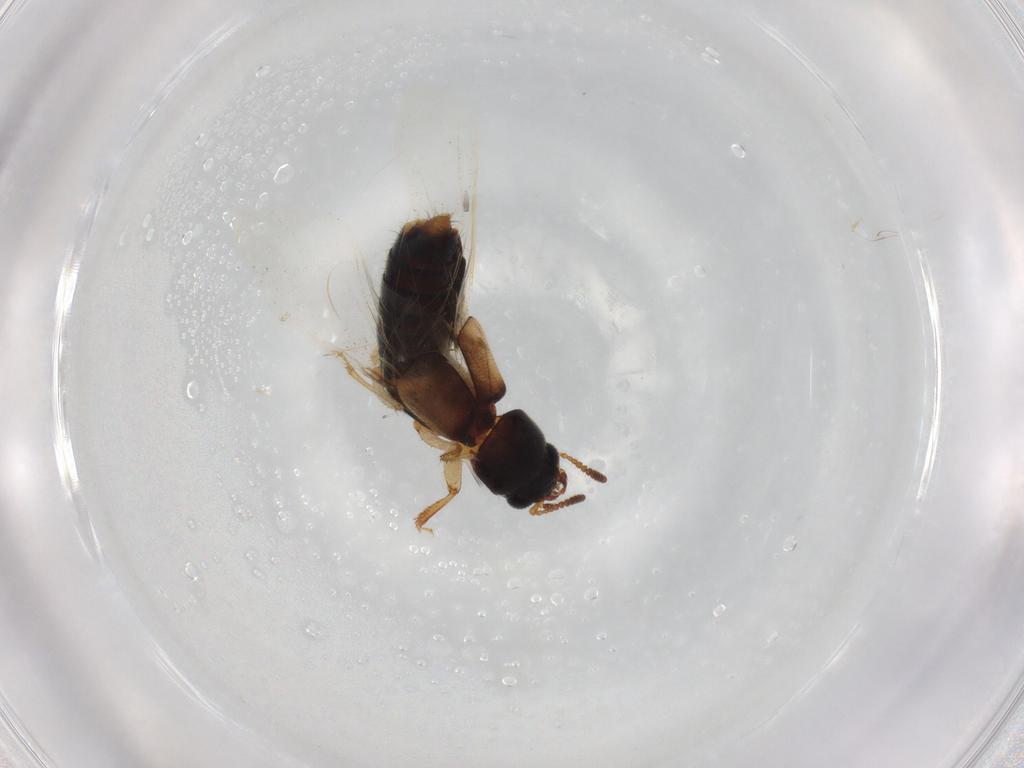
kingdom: Animalia
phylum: Arthropoda
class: Insecta
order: Coleoptera
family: Staphylinidae
